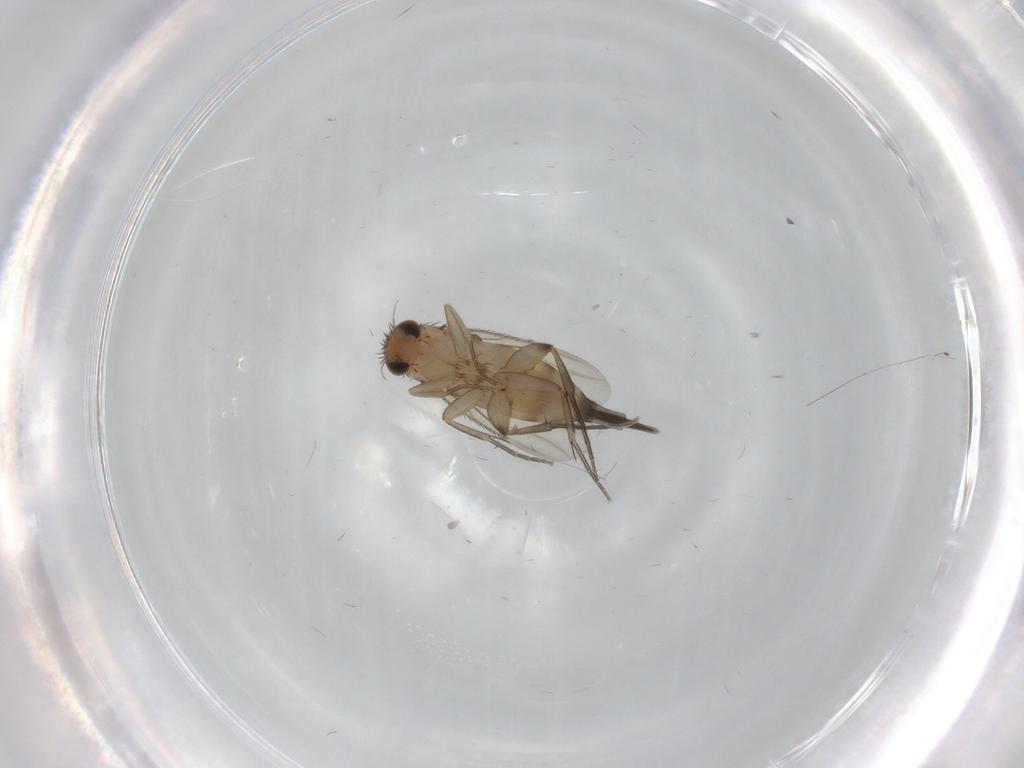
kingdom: Animalia
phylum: Arthropoda
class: Insecta
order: Diptera
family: Phoridae
